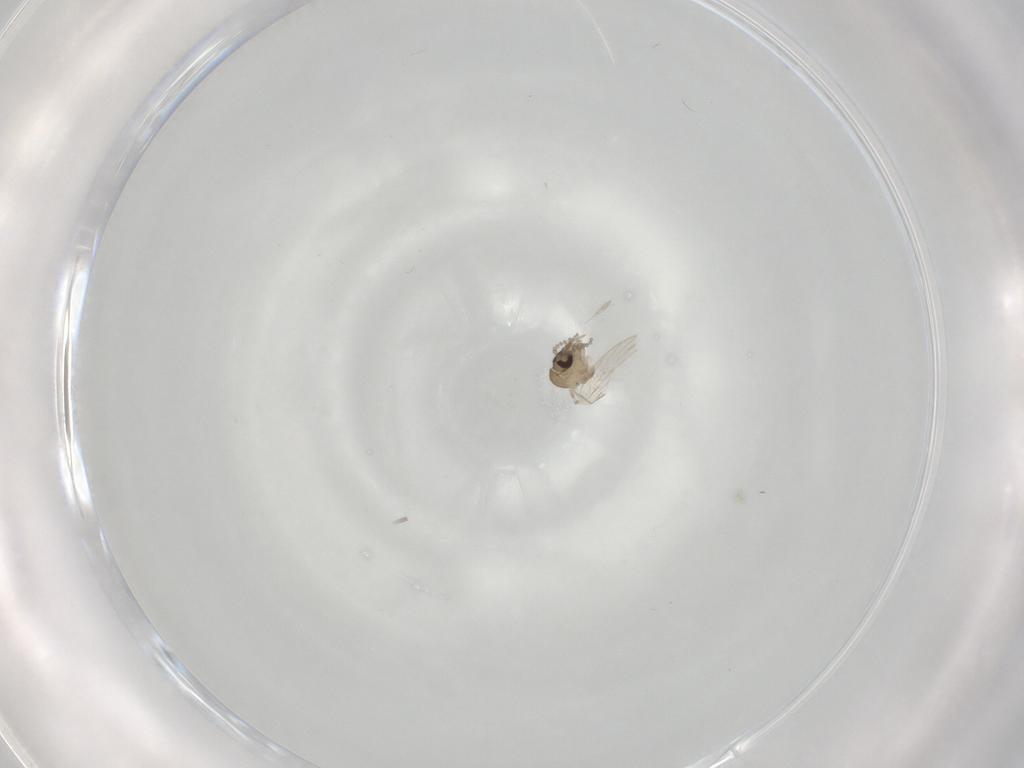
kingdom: Animalia
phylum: Arthropoda
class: Insecta
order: Diptera
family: Psychodidae
